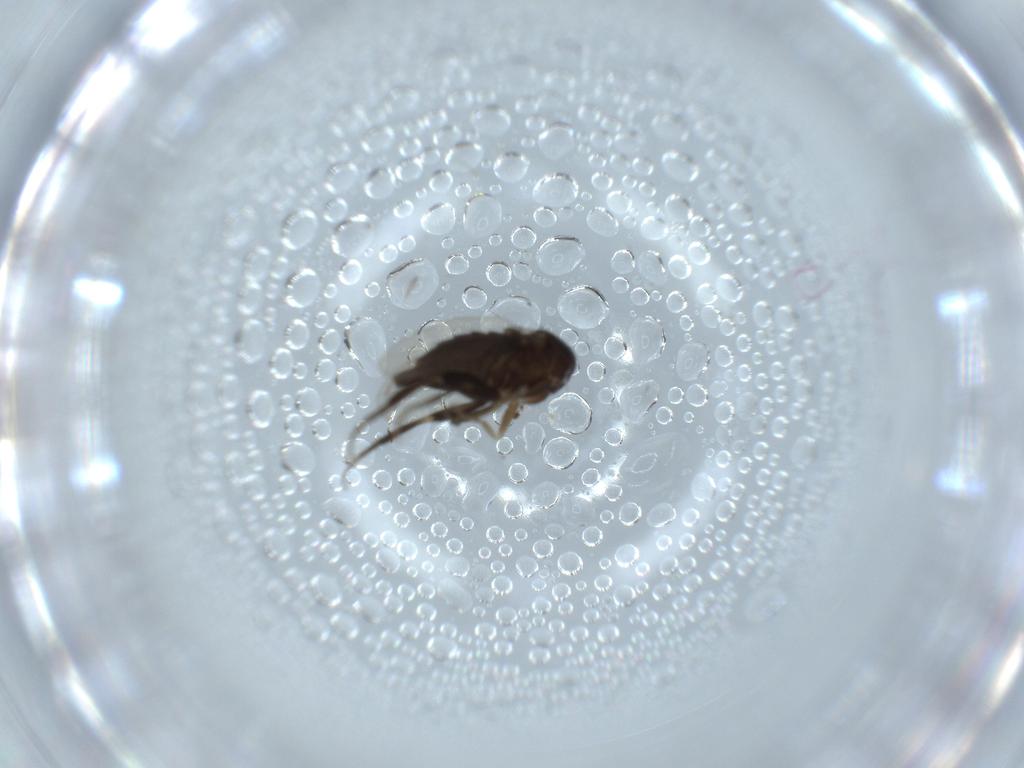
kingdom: Animalia
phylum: Arthropoda
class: Insecta
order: Diptera
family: Phoridae
